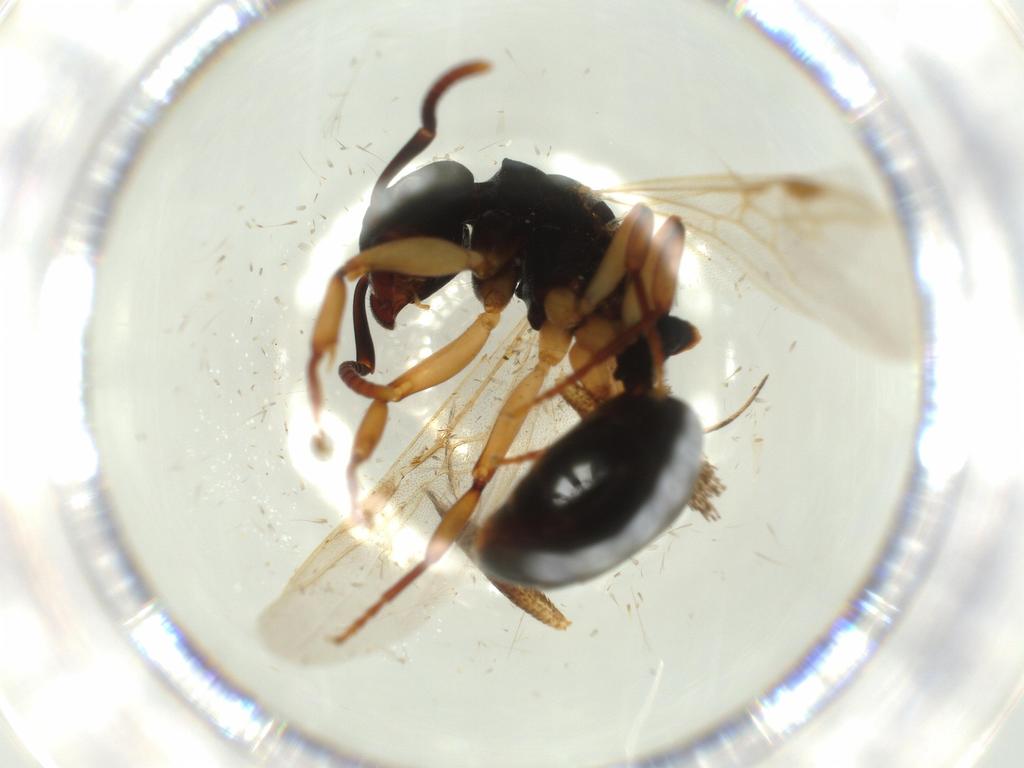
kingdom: Animalia
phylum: Arthropoda
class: Insecta
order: Hymenoptera
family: Formicidae
